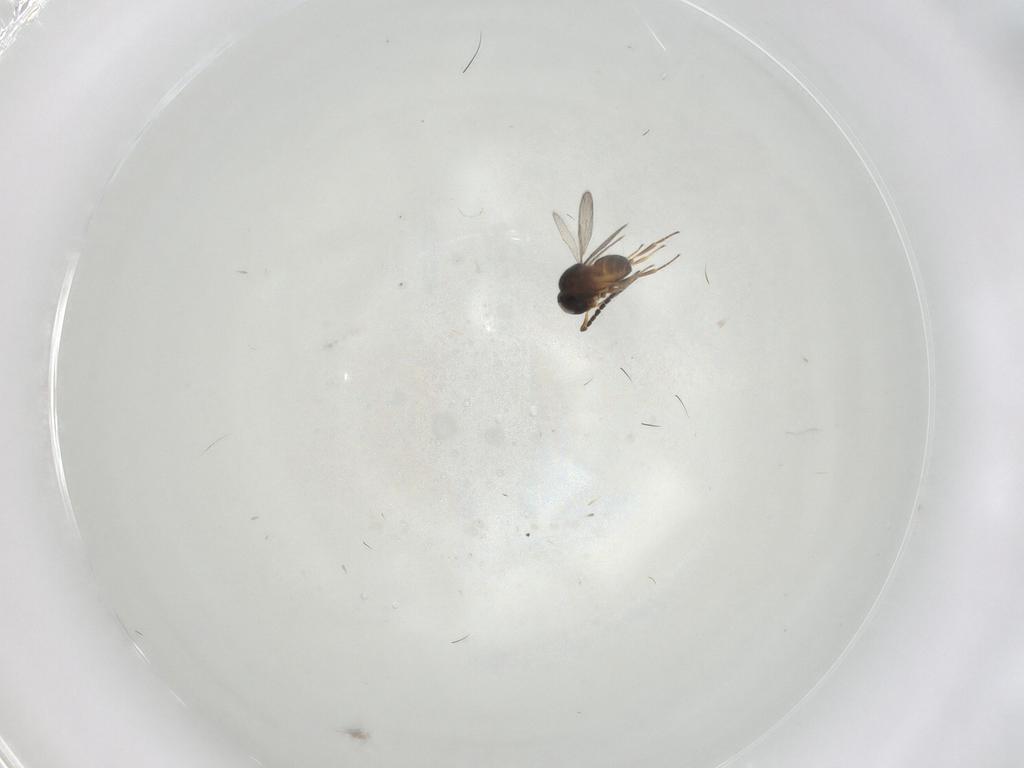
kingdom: Animalia
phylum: Arthropoda
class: Insecta
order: Hymenoptera
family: Scelionidae
